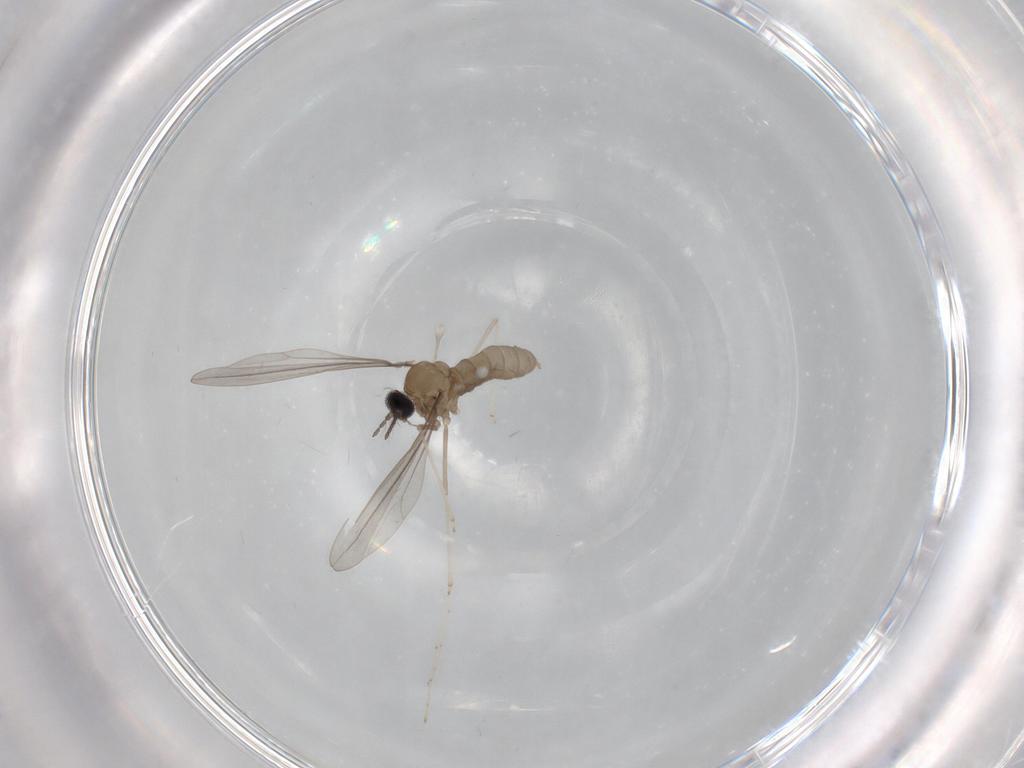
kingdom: Animalia
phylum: Arthropoda
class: Insecta
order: Diptera
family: Cecidomyiidae
